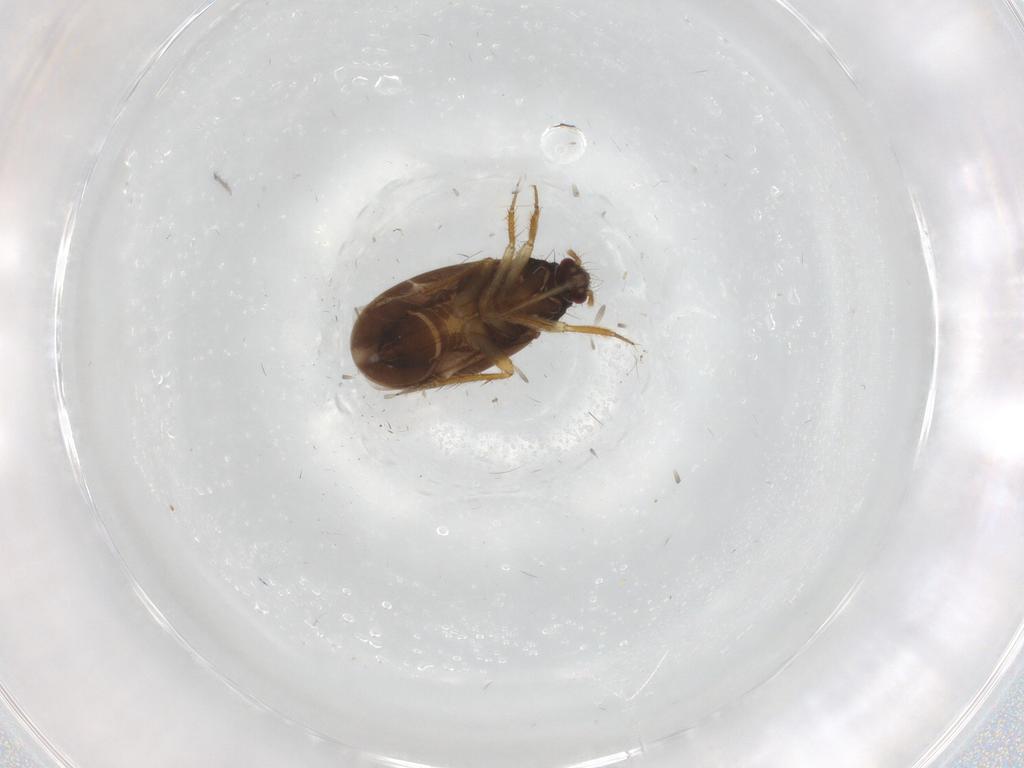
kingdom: Animalia
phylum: Arthropoda
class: Insecta
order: Hemiptera
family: Ceratocombidae
